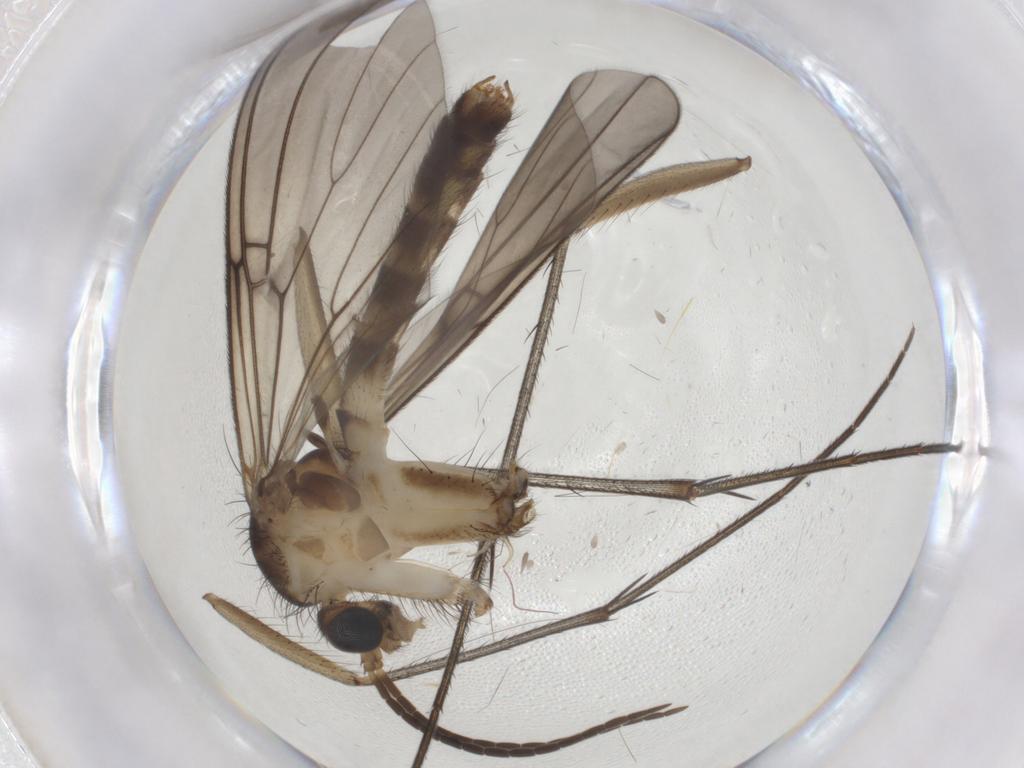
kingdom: Animalia
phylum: Arthropoda
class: Insecta
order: Diptera
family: Mycetophilidae
